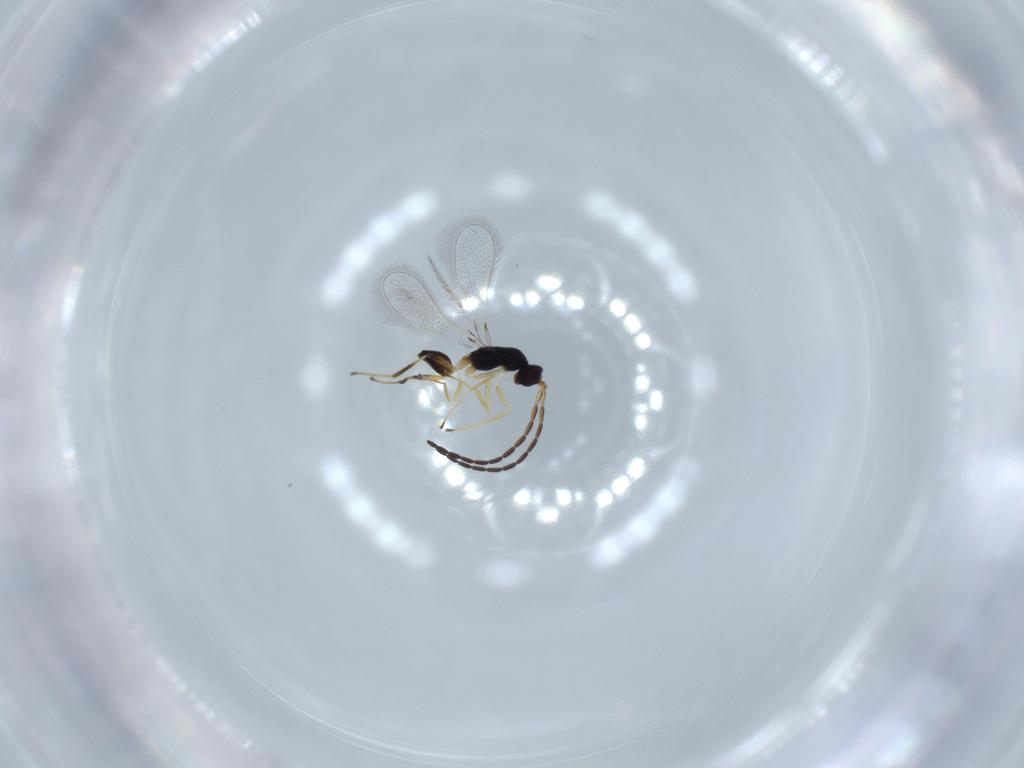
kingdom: Animalia
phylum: Arthropoda
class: Insecta
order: Hymenoptera
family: Mymaridae
